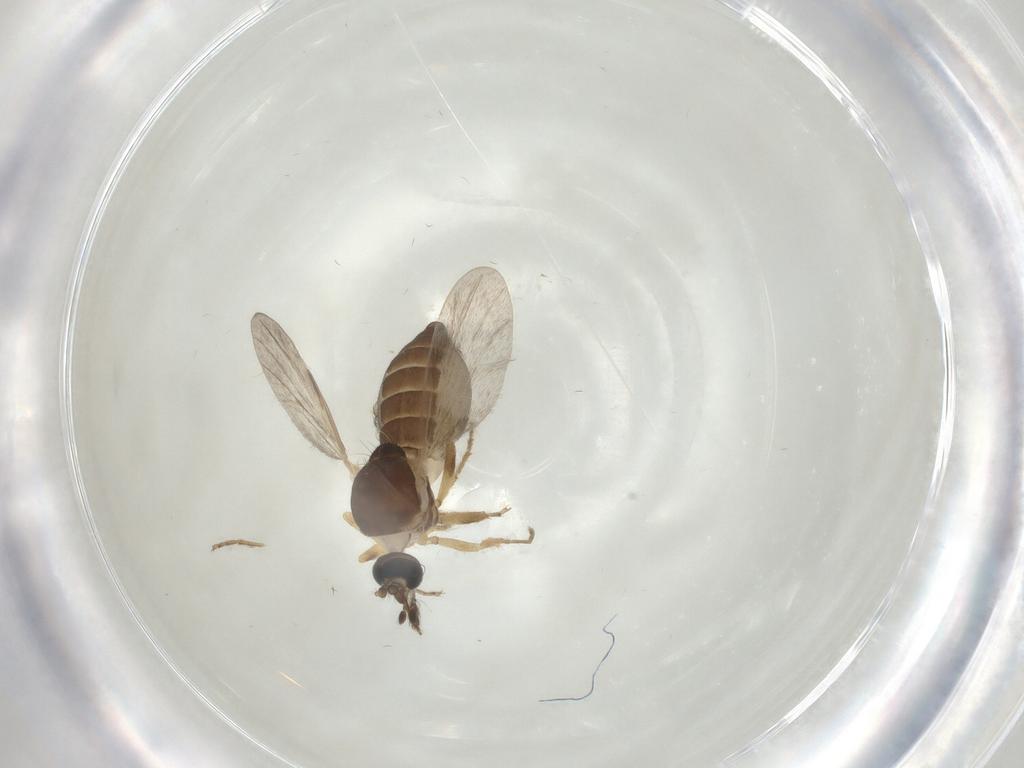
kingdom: Animalia
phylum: Arthropoda
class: Insecta
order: Diptera
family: Ceratopogonidae
